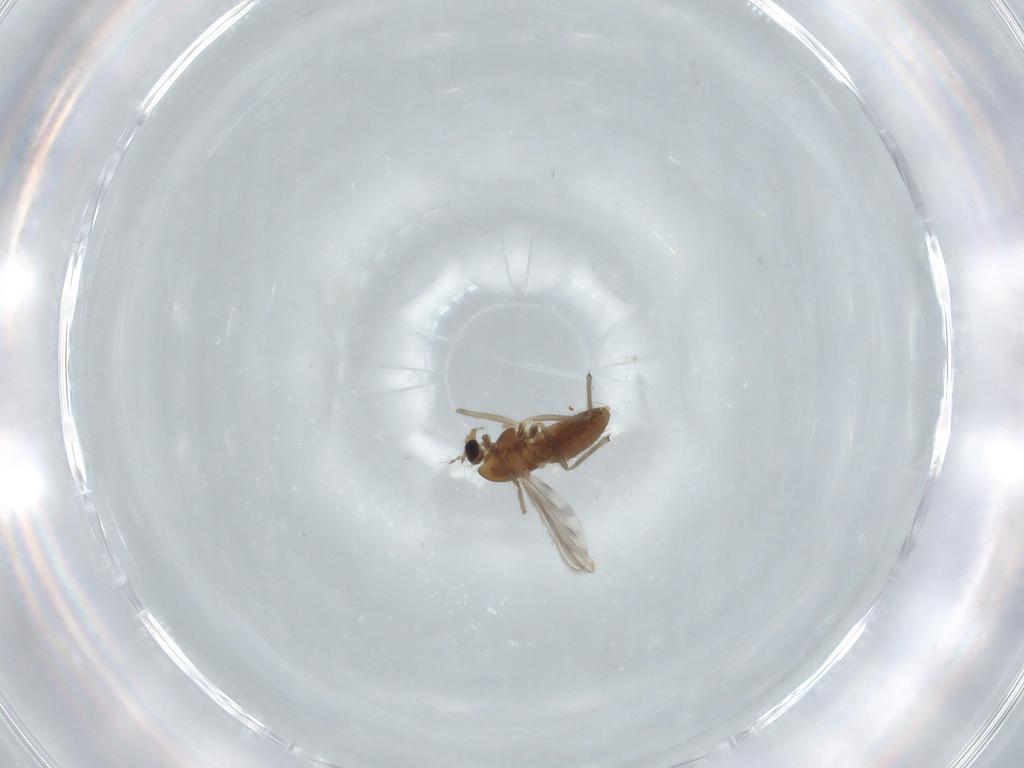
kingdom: Animalia
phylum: Arthropoda
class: Insecta
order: Diptera
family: Chironomidae
